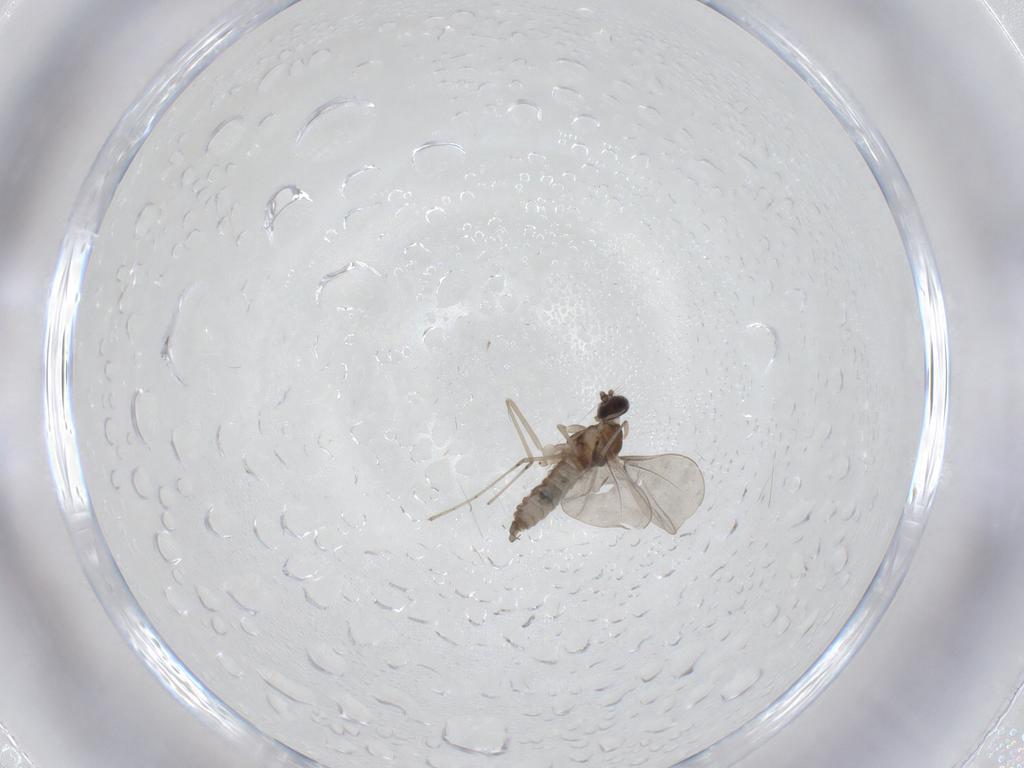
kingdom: Animalia
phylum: Arthropoda
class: Insecta
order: Diptera
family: Cecidomyiidae
